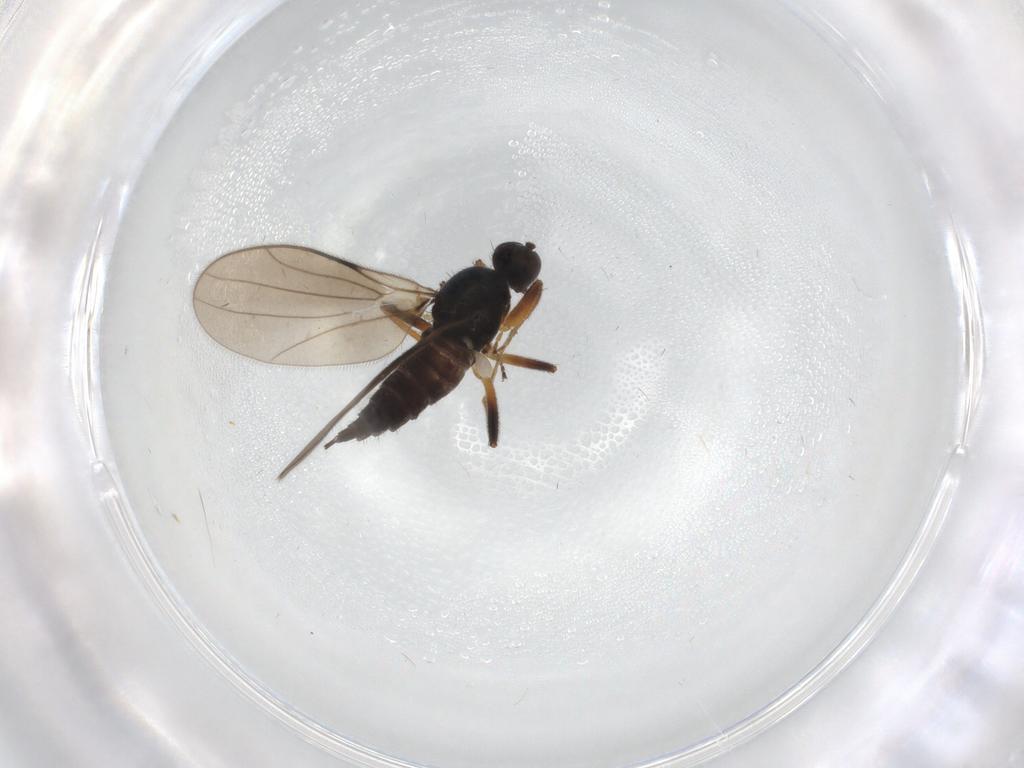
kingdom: Animalia
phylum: Arthropoda
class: Insecta
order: Diptera
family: Hybotidae
